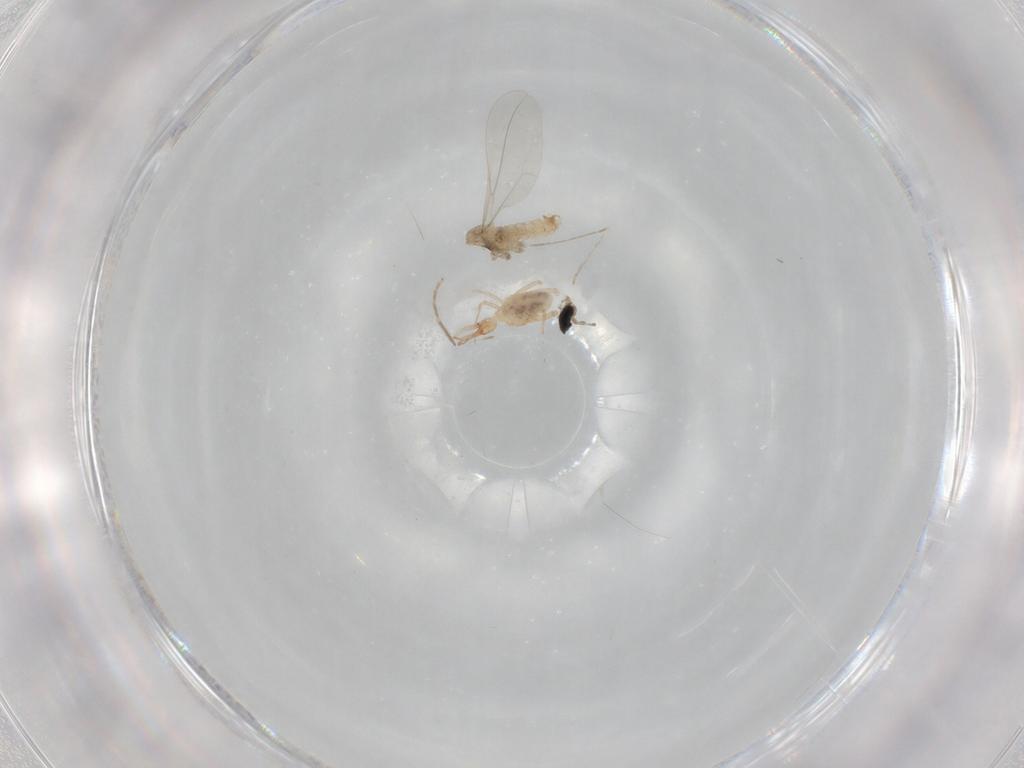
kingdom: Animalia
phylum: Arthropoda
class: Insecta
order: Diptera
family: Cecidomyiidae
